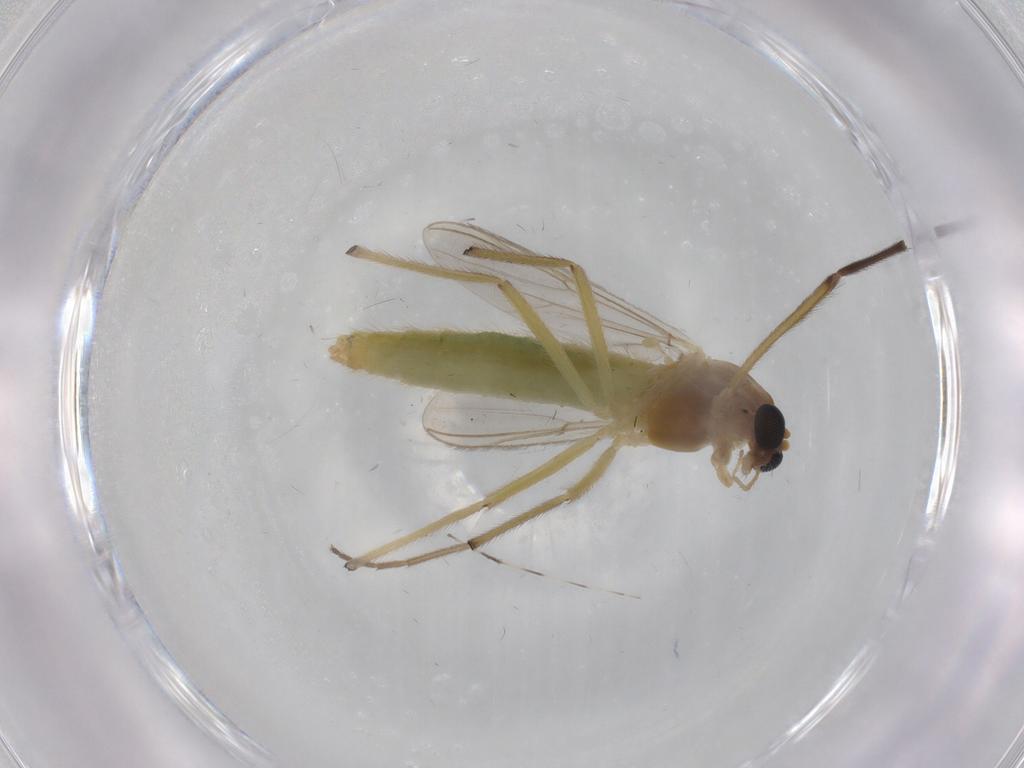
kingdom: Animalia
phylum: Arthropoda
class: Insecta
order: Diptera
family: Chironomidae
